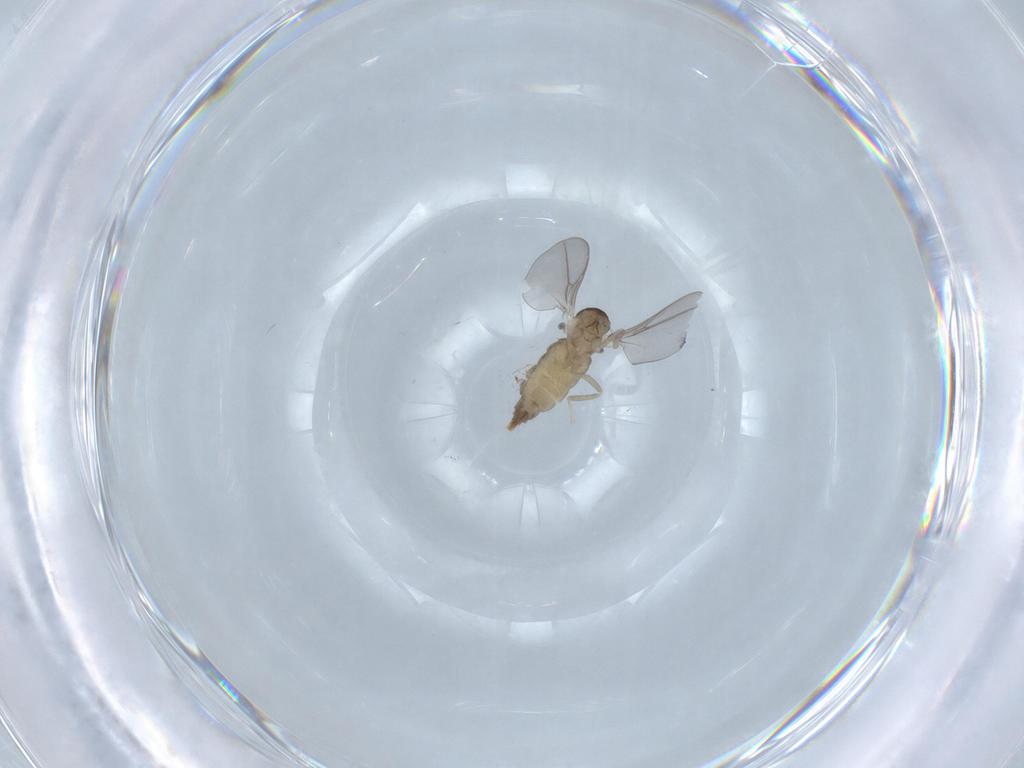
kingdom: Animalia
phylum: Arthropoda
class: Insecta
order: Diptera
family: Cecidomyiidae
